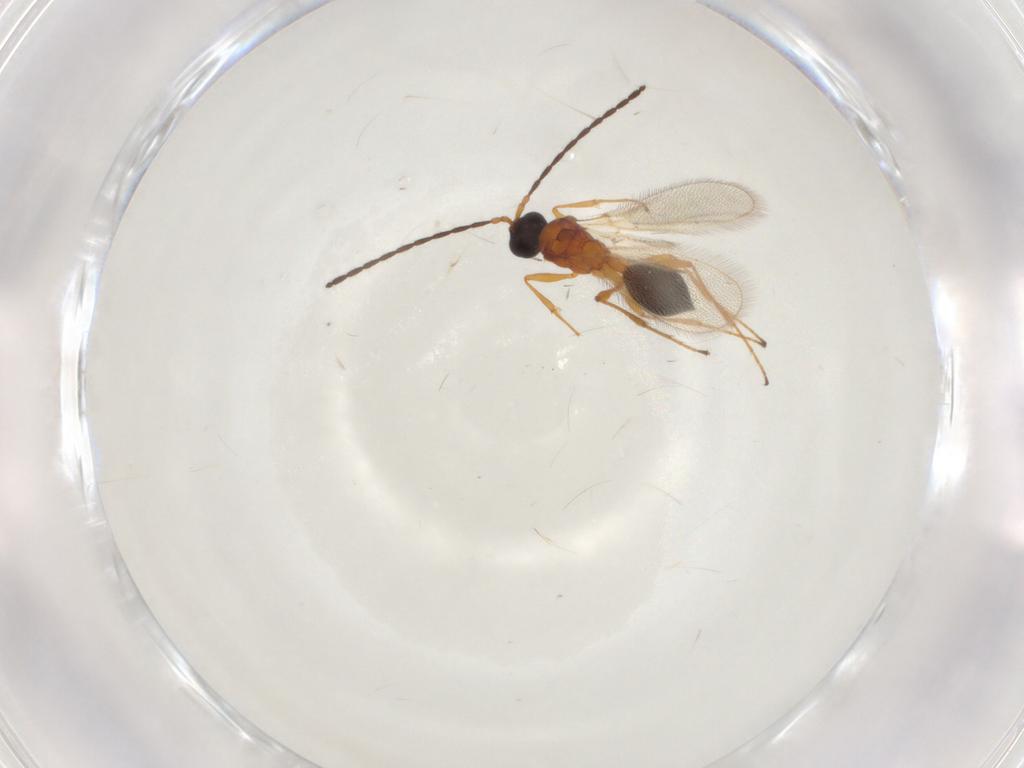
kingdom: Animalia
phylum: Arthropoda
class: Insecta
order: Hymenoptera
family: Diapriidae
